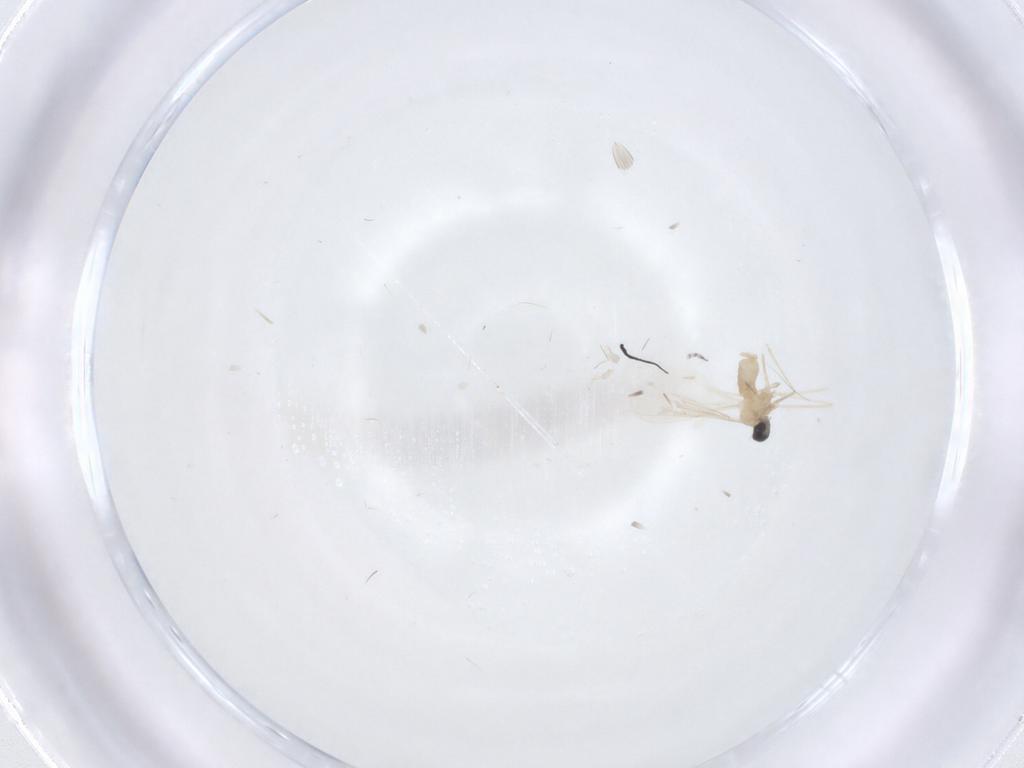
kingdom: Animalia
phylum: Arthropoda
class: Insecta
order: Diptera
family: Cecidomyiidae
